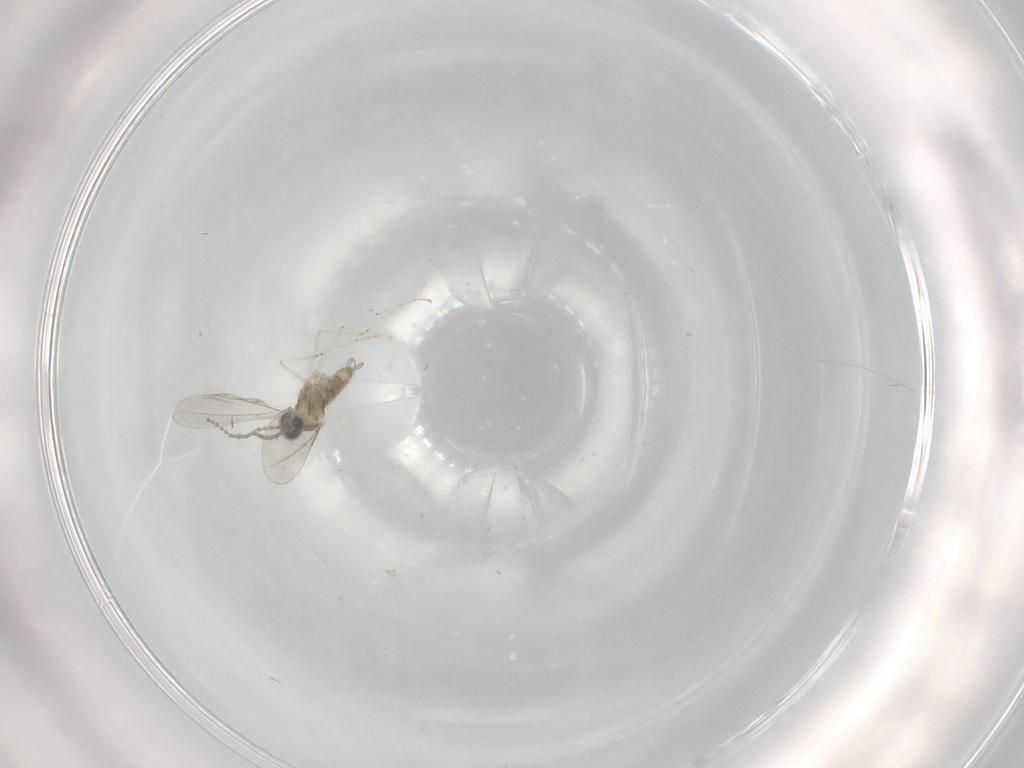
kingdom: Animalia
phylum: Arthropoda
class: Insecta
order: Diptera
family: Cecidomyiidae
